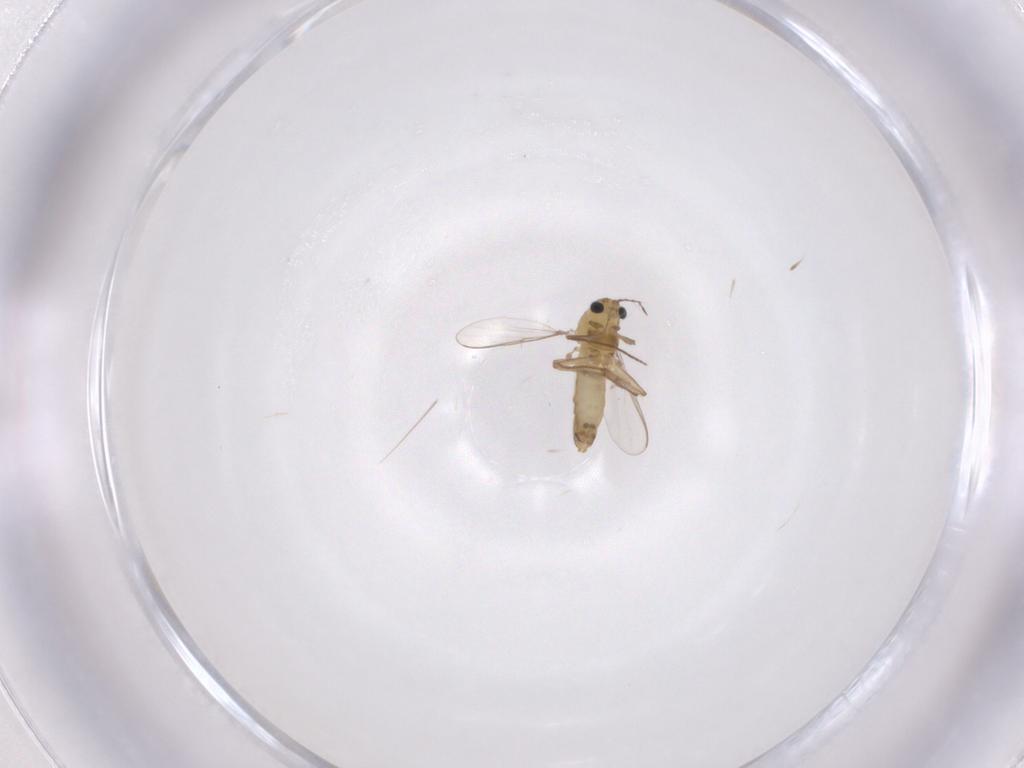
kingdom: Animalia
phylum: Arthropoda
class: Insecta
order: Diptera
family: Chironomidae
